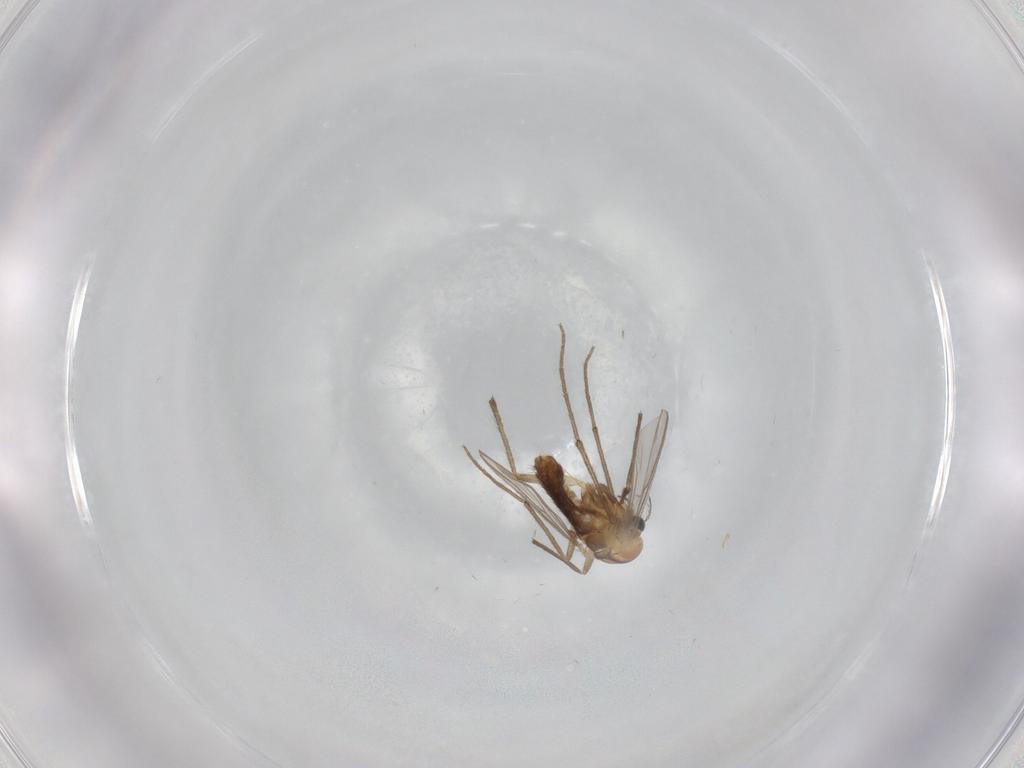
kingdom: Animalia
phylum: Arthropoda
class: Insecta
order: Diptera
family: Chironomidae
